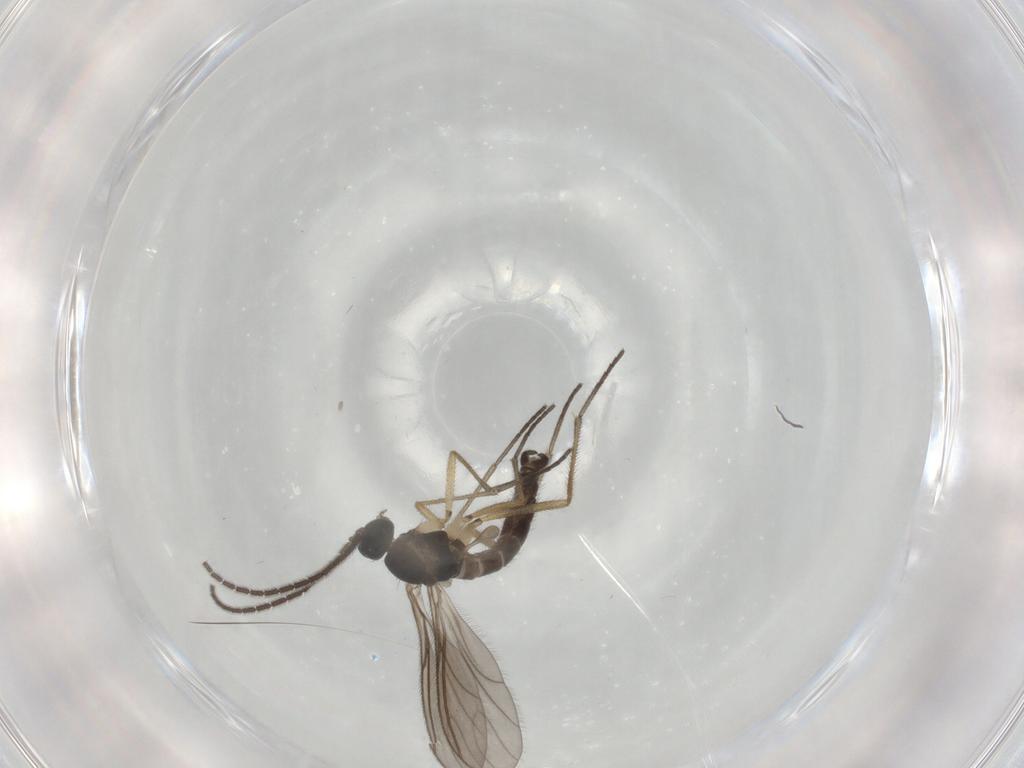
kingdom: Animalia
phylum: Arthropoda
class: Insecta
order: Diptera
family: Sciaridae
